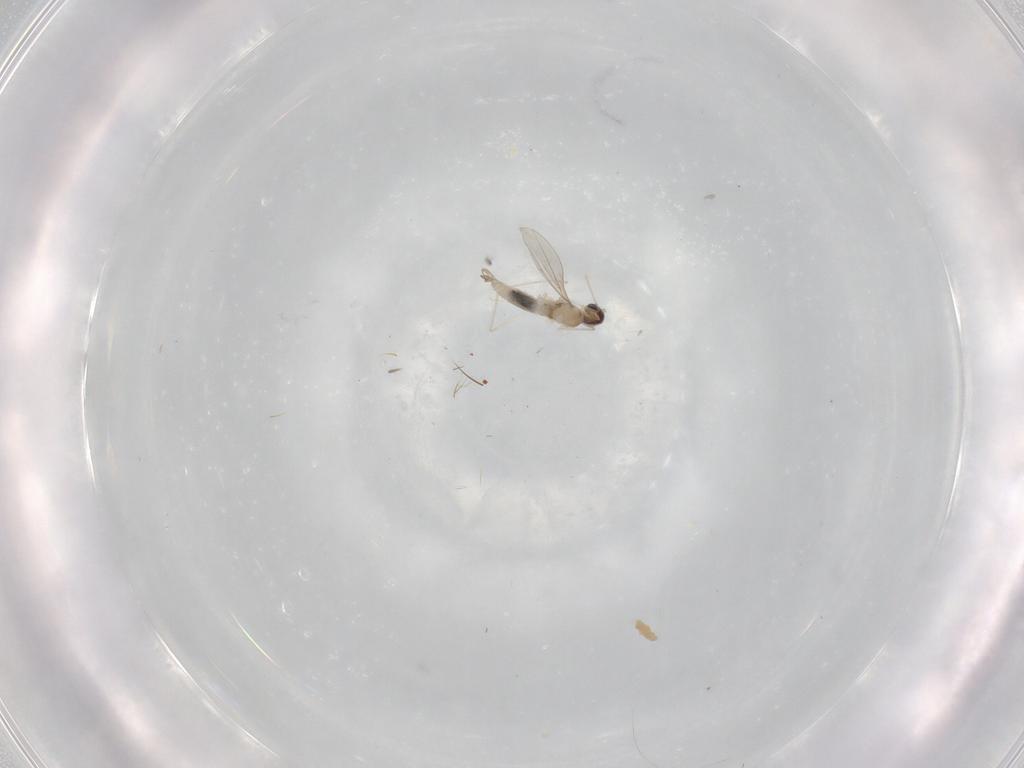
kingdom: Animalia
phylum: Arthropoda
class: Insecta
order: Diptera
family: Cecidomyiidae
